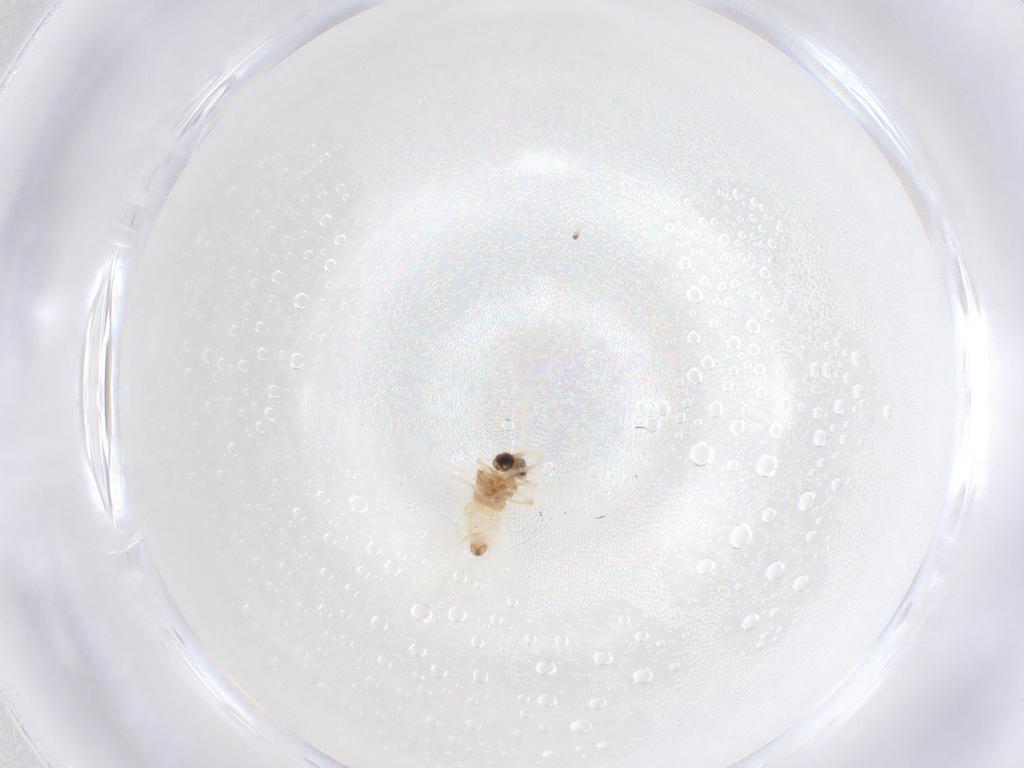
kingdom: Animalia
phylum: Arthropoda
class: Insecta
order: Neuroptera
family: Coniopterygidae
